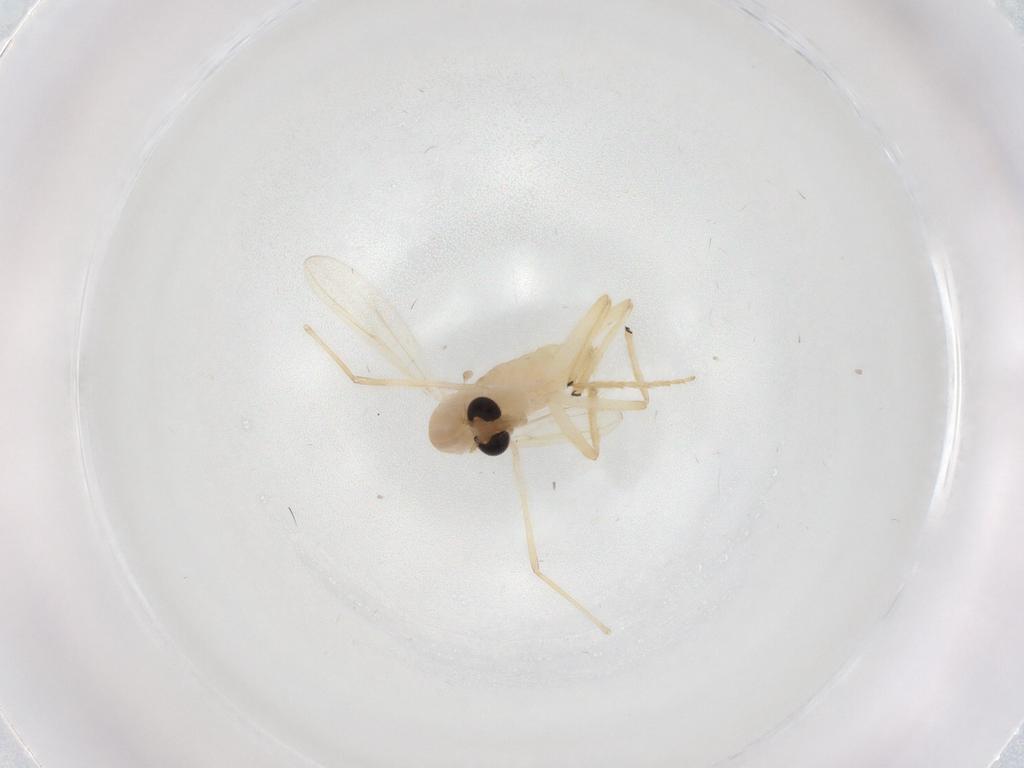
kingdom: Animalia
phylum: Arthropoda
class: Insecta
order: Diptera
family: Chironomidae
